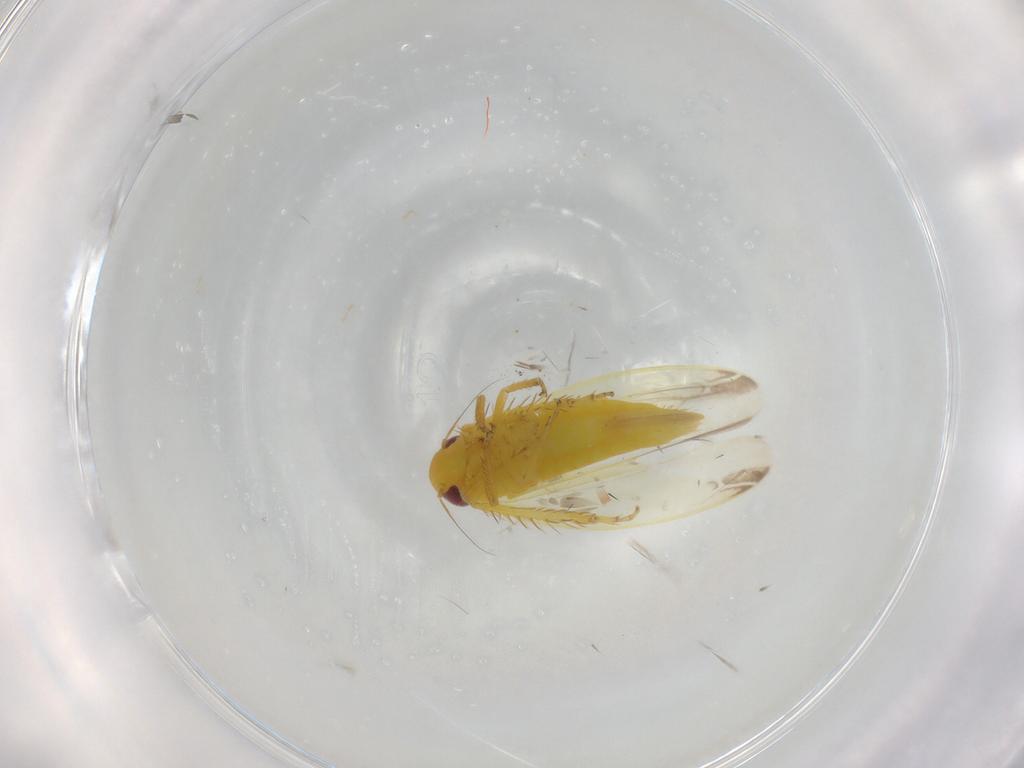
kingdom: Animalia
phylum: Arthropoda
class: Insecta
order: Hemiptera
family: Cicadellidae
